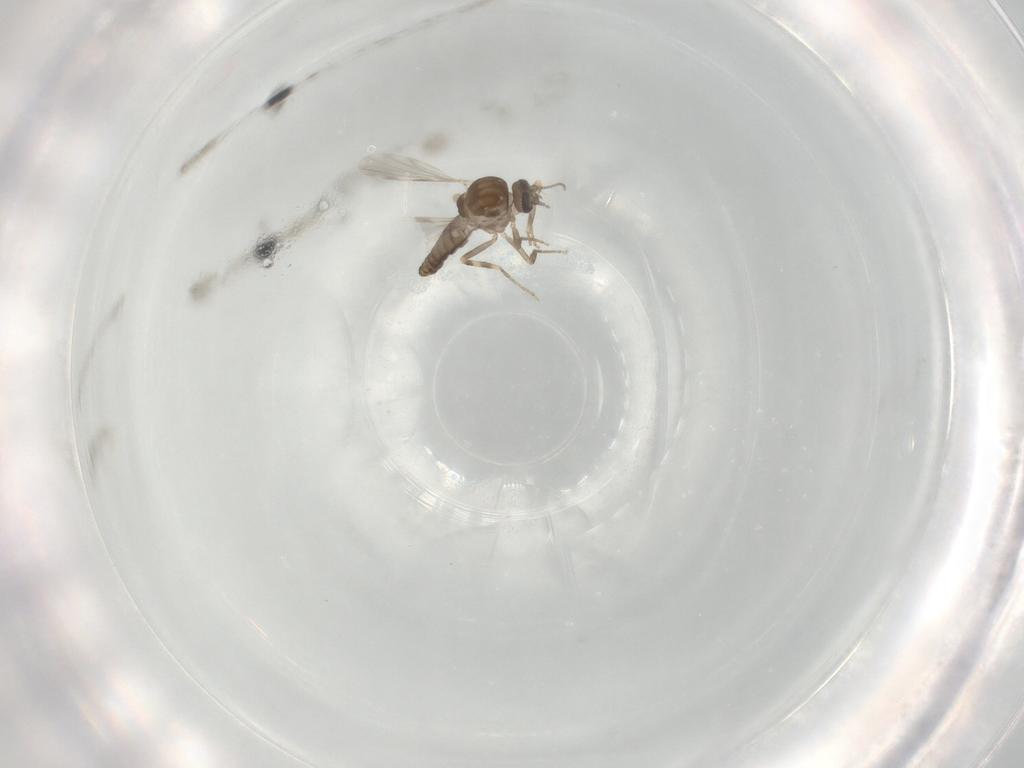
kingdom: Animalia
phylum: Arthropoda
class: Insecta
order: Diptera
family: Ceratopogonidae
